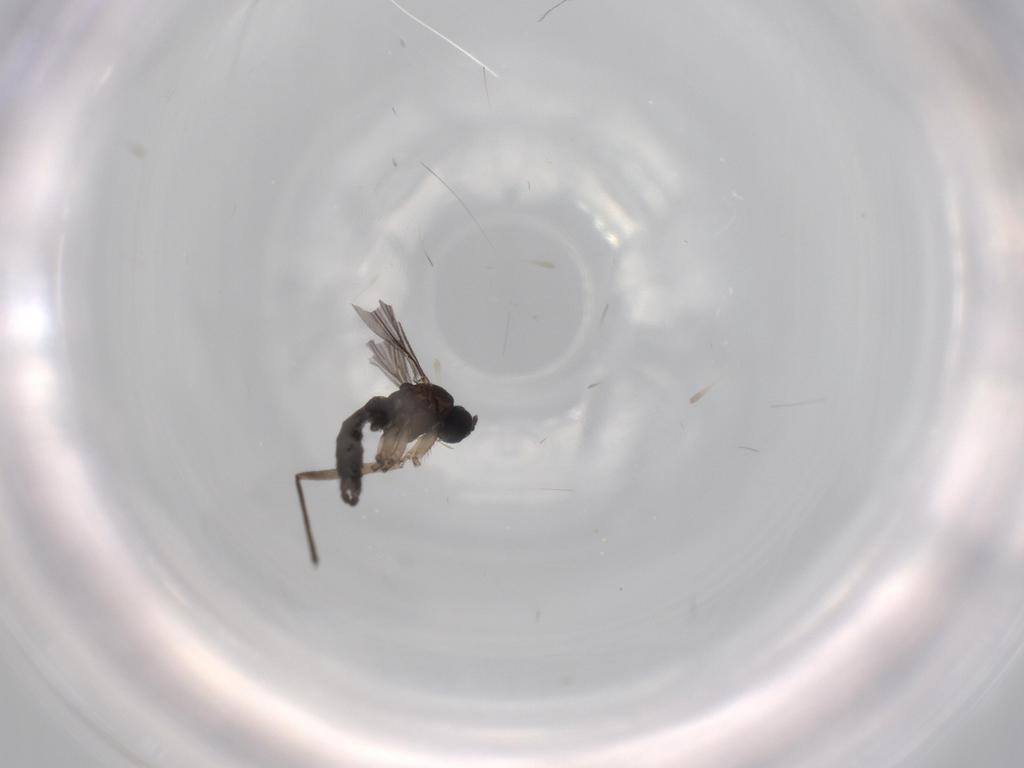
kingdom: Animalia
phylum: Arthropoda
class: Insecta
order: Diptera
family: Sciaridae
